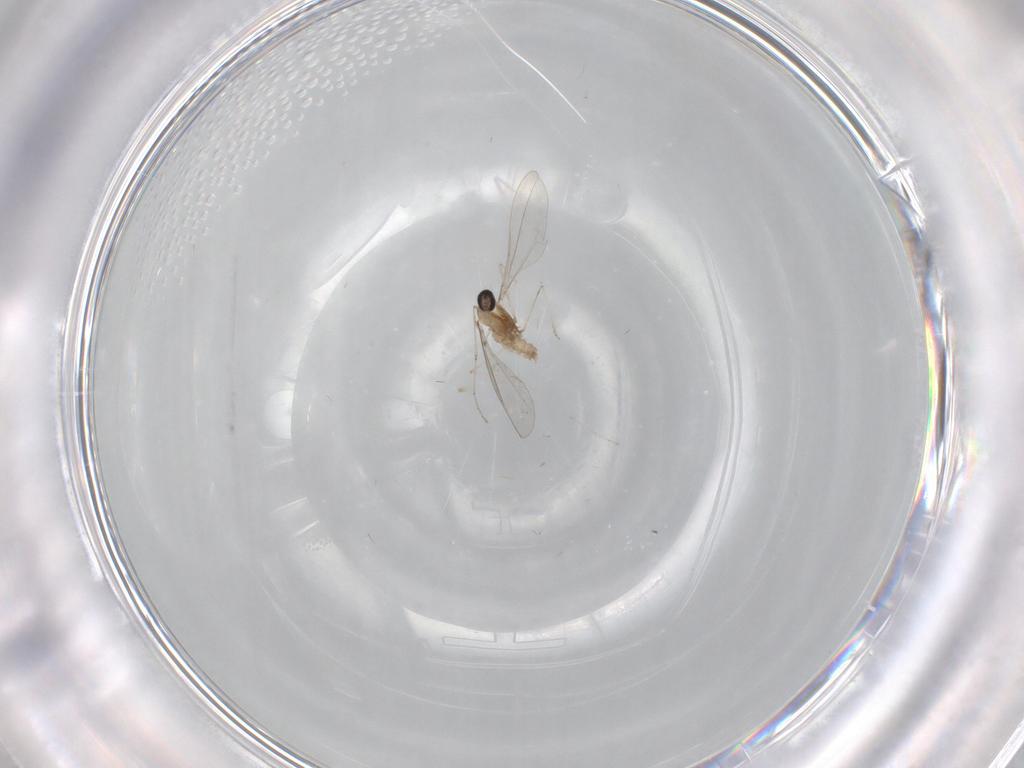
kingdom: Animalia
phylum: Arthropoda
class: Insecta
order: Diptera
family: Cecidomyiidae
